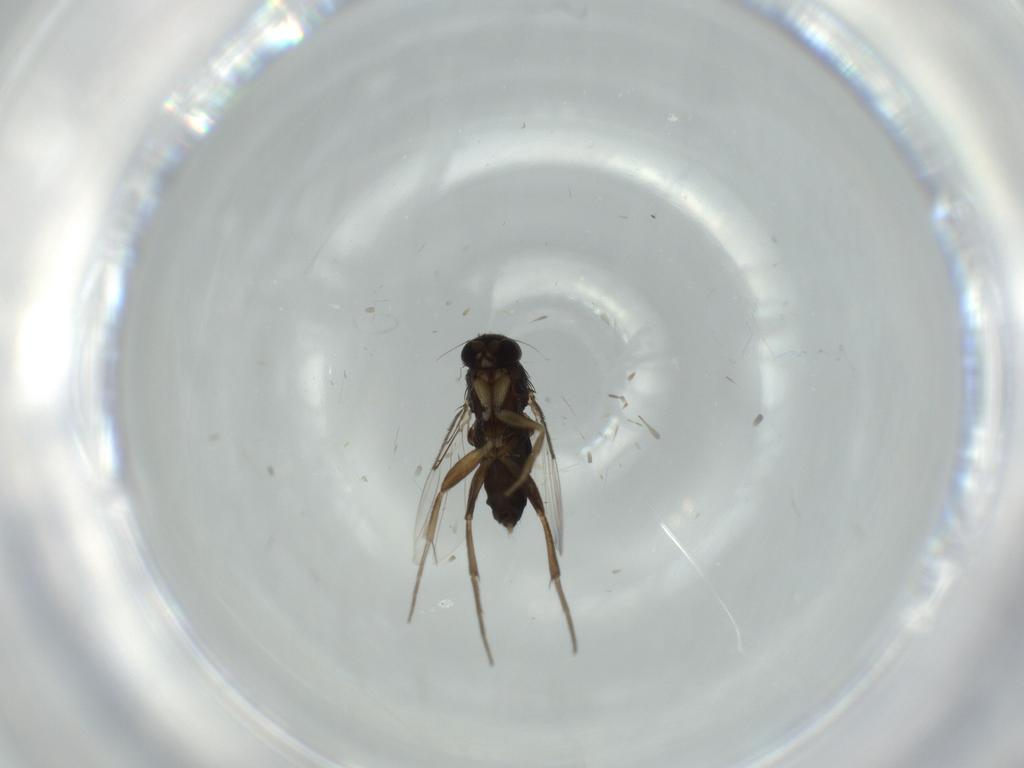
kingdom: Animalia
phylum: Arthropoda
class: Insecta
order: Diptera
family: Phoridae
